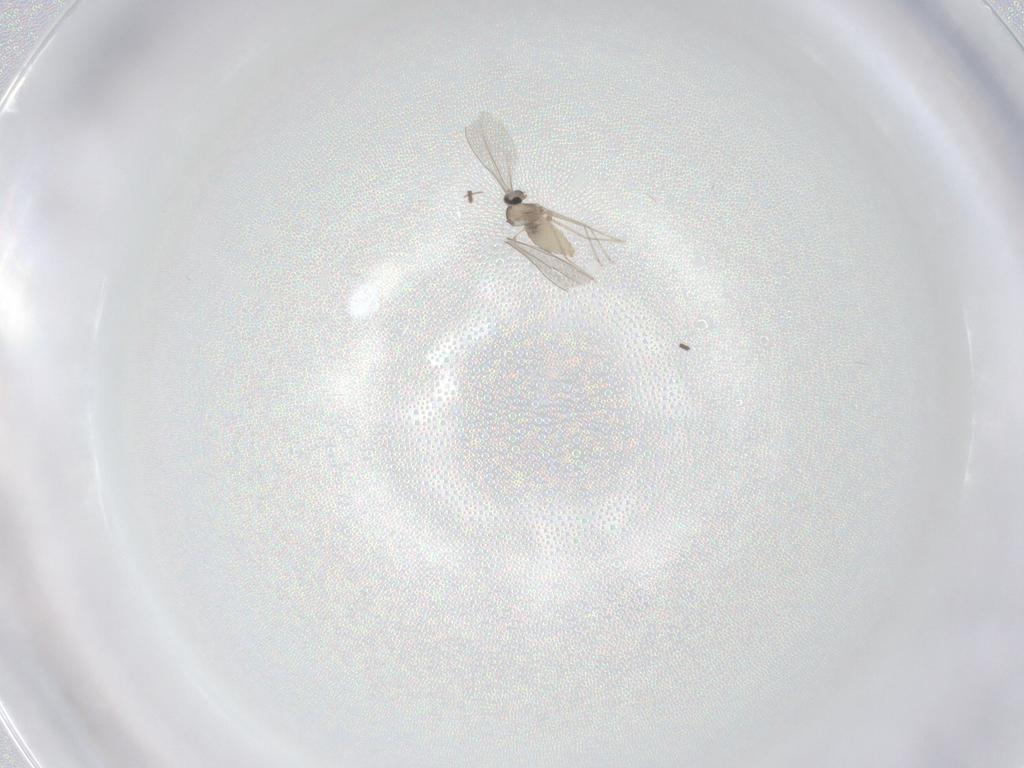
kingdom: Animalia
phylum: Arthropoda
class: Insecta
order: Diptera
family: Sciaridae
